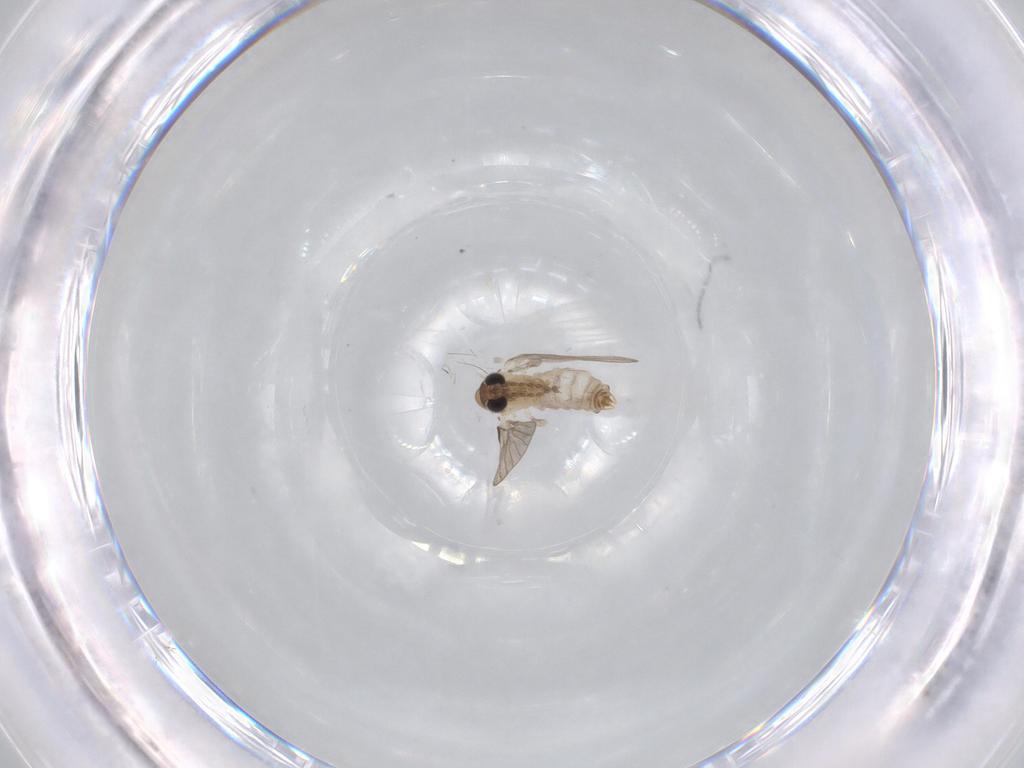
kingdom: Animalia
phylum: Arthropoda
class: Insecta
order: Diptera
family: Psychodidae
